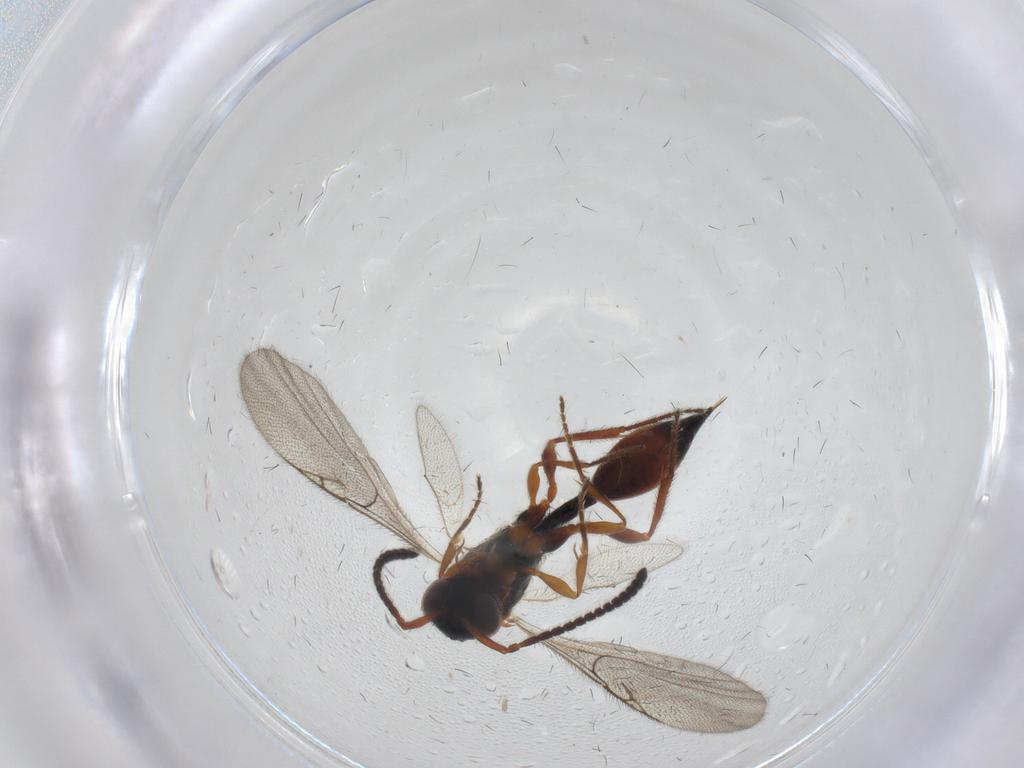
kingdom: Animalia
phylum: Arthropoda
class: Insecta
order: Hymenoptera
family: Diapriidae
